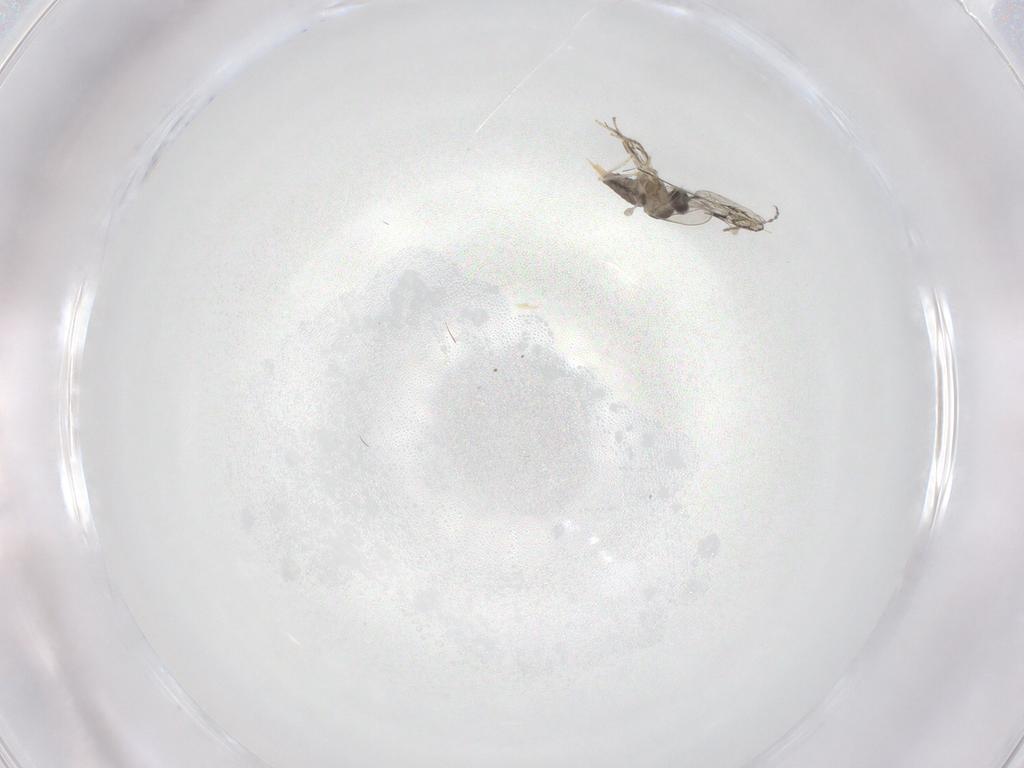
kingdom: Animalia
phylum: Arthropoda
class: Insecta
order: Diptera
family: Cecidomyiidae
